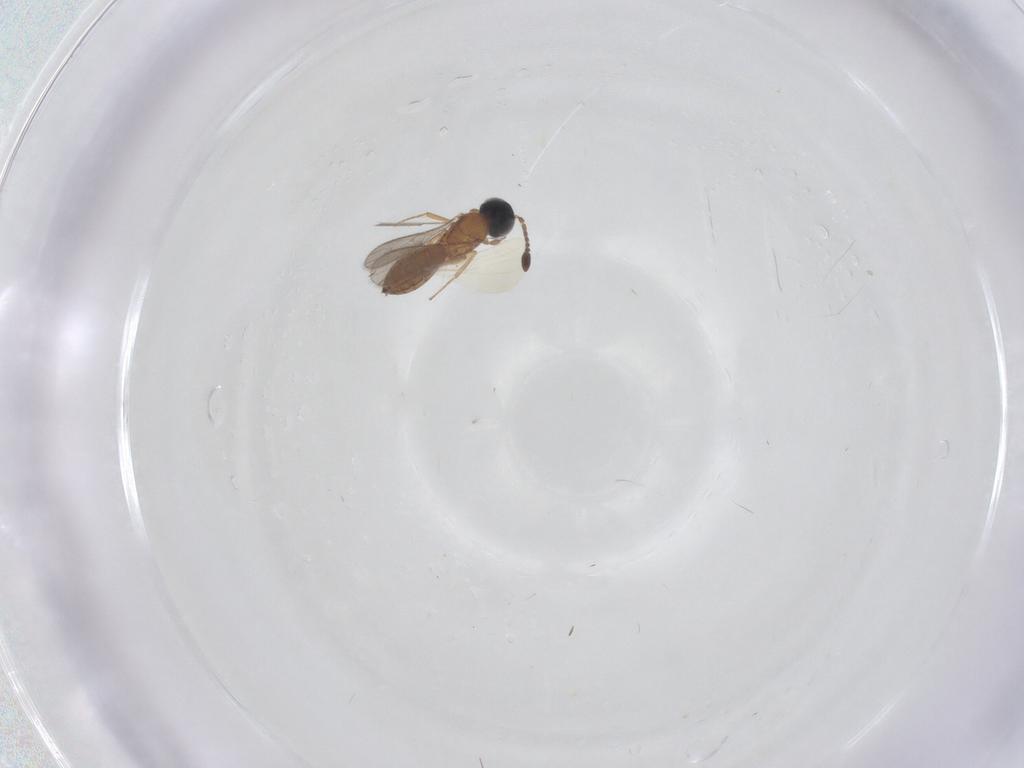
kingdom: Animalia
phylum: Arthropoda
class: Insecta
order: Hymenoptera
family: Scelionidae
